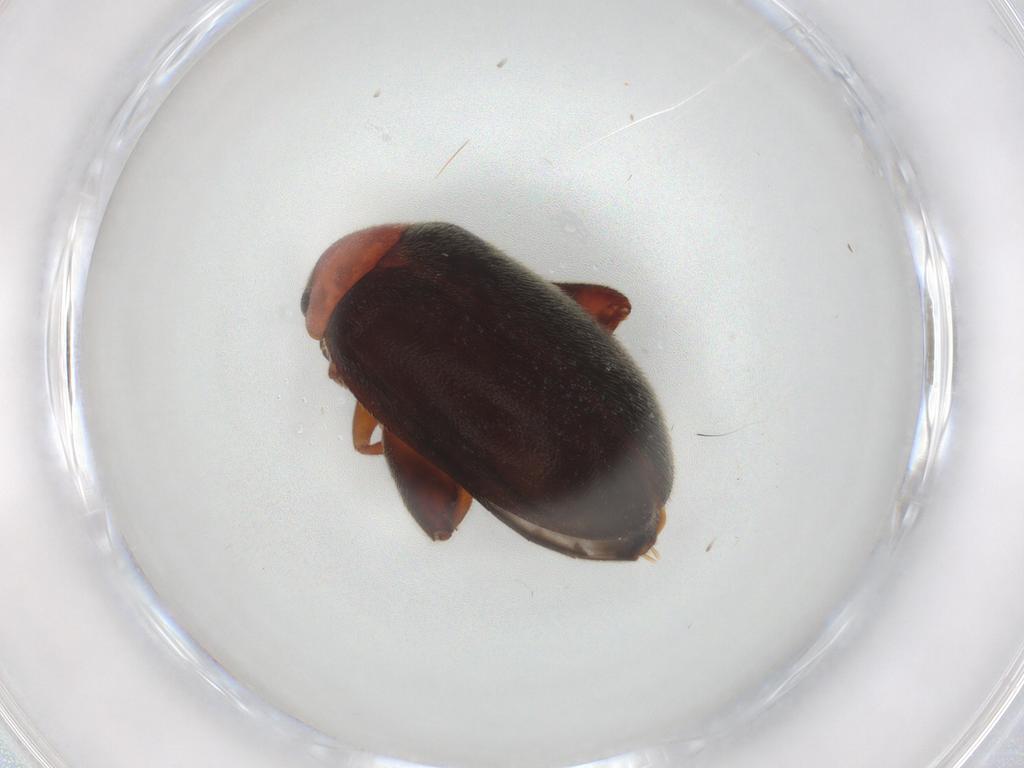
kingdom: Animalia
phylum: Arthropoda
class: Insecta
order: Coleoptera
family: Scirtidae
